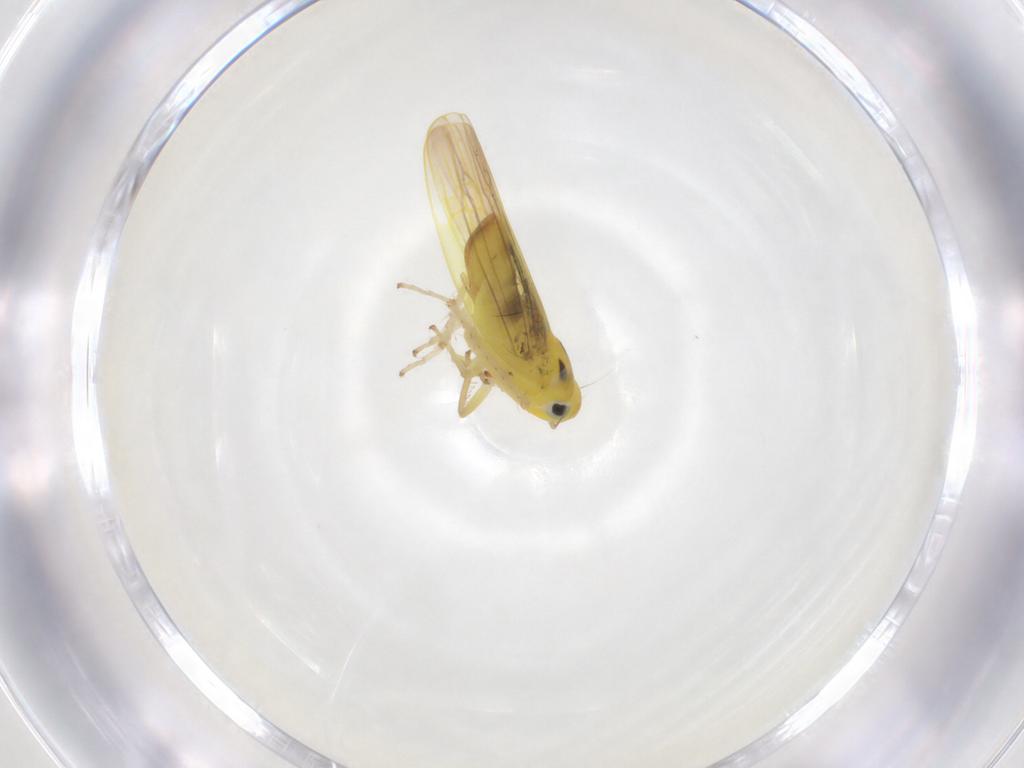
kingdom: Animalia
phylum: Arthropoda
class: Insecta
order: Hemiptera
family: Cicadellidae
